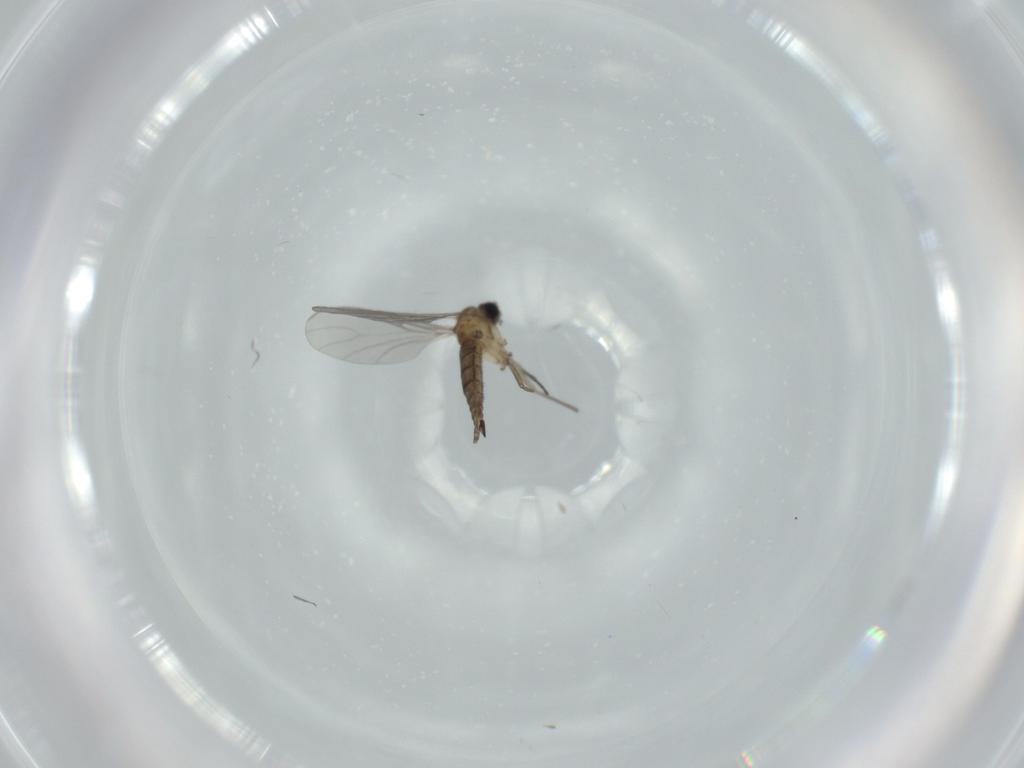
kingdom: Animalia
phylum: Arthropoda
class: Insecta
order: Diptera
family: Sciaridae
